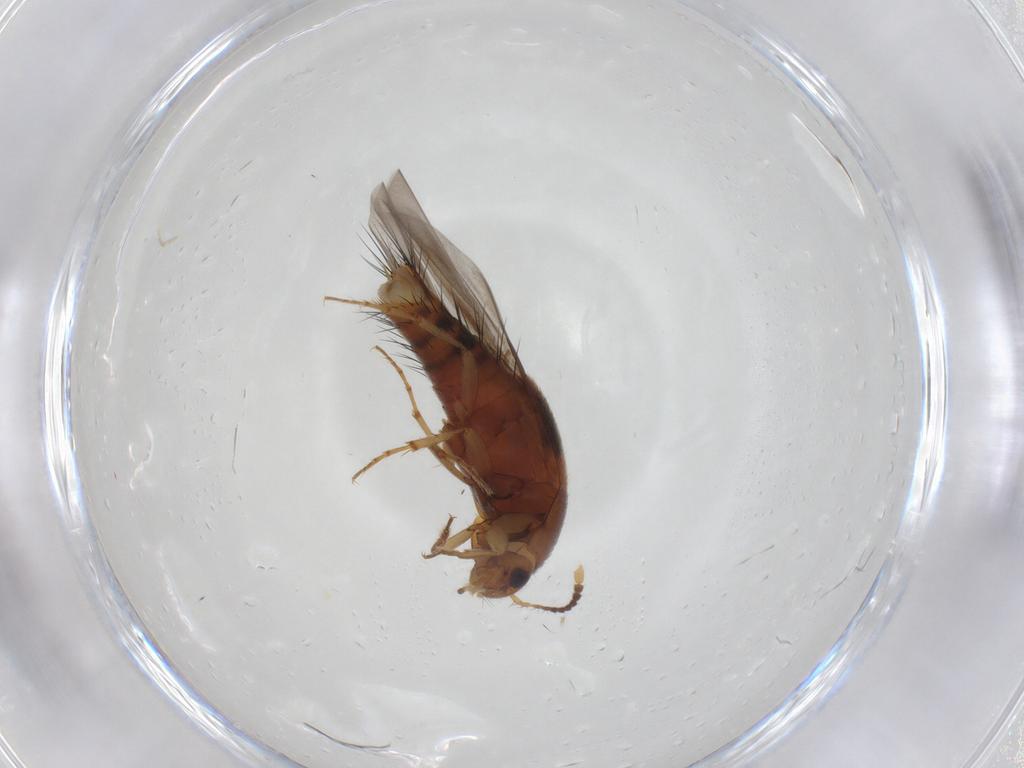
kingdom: Animalia
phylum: Arthropoda
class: Insecta
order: Coleoptera
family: Staphylinidae
